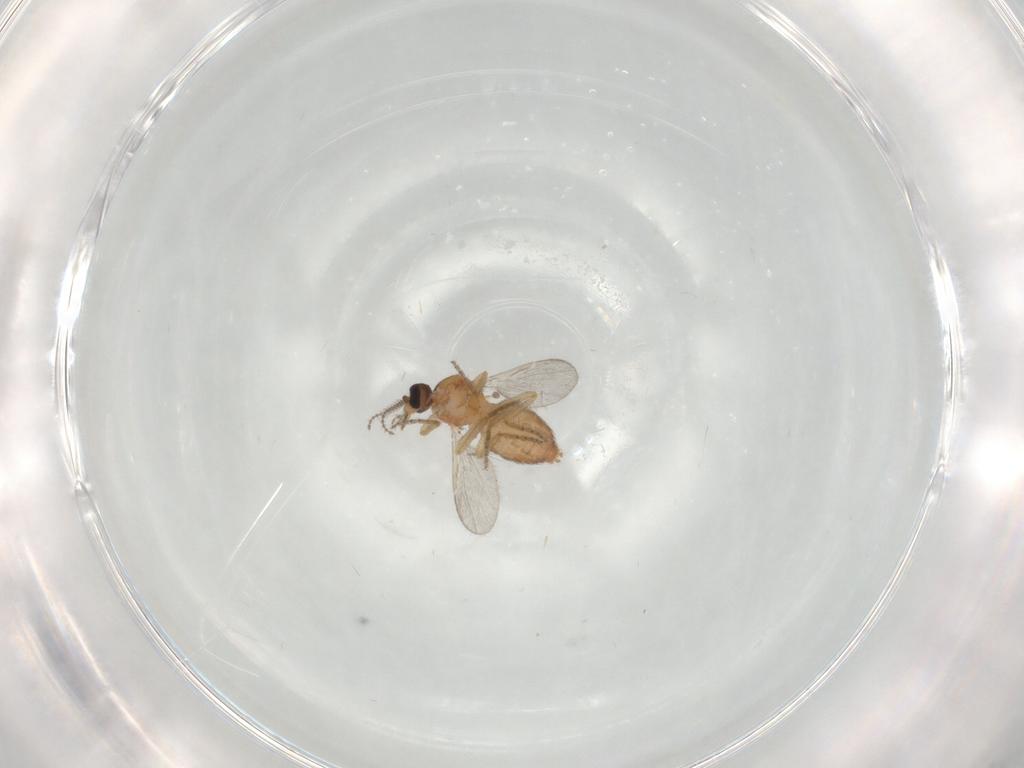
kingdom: Animalia
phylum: Arthropoda
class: Insecta
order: Diptera
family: Ceratopogonidae
